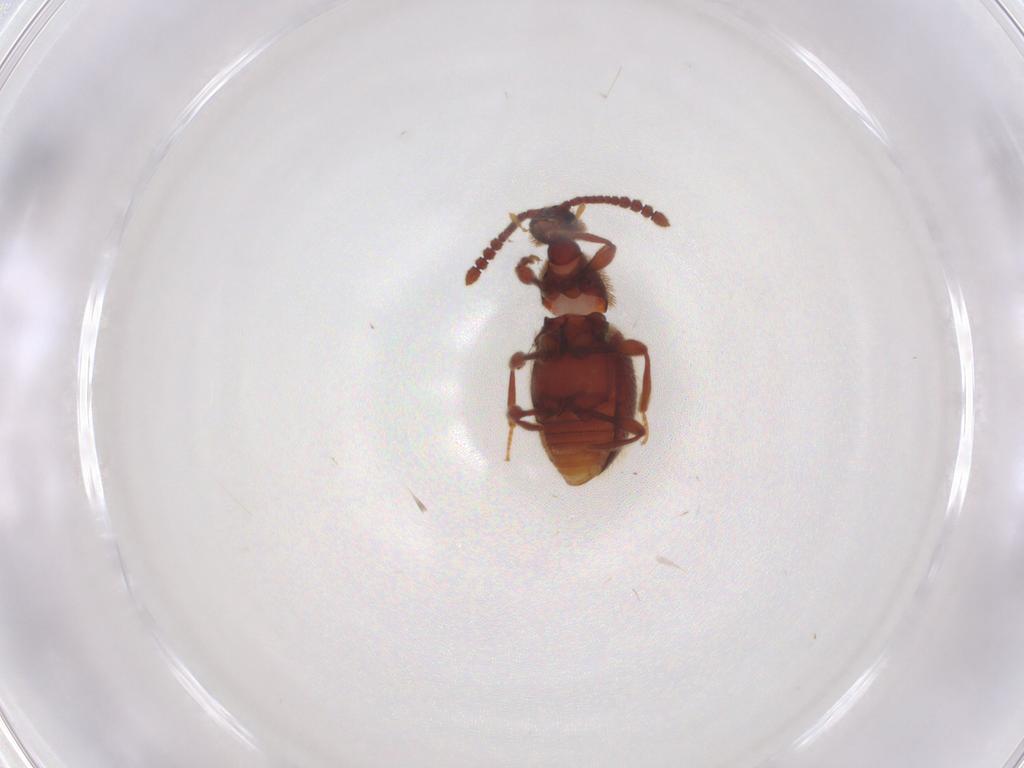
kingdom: Animalia
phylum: Arthropoda
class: Insecta
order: Coleoptera
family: Staphylinidae
